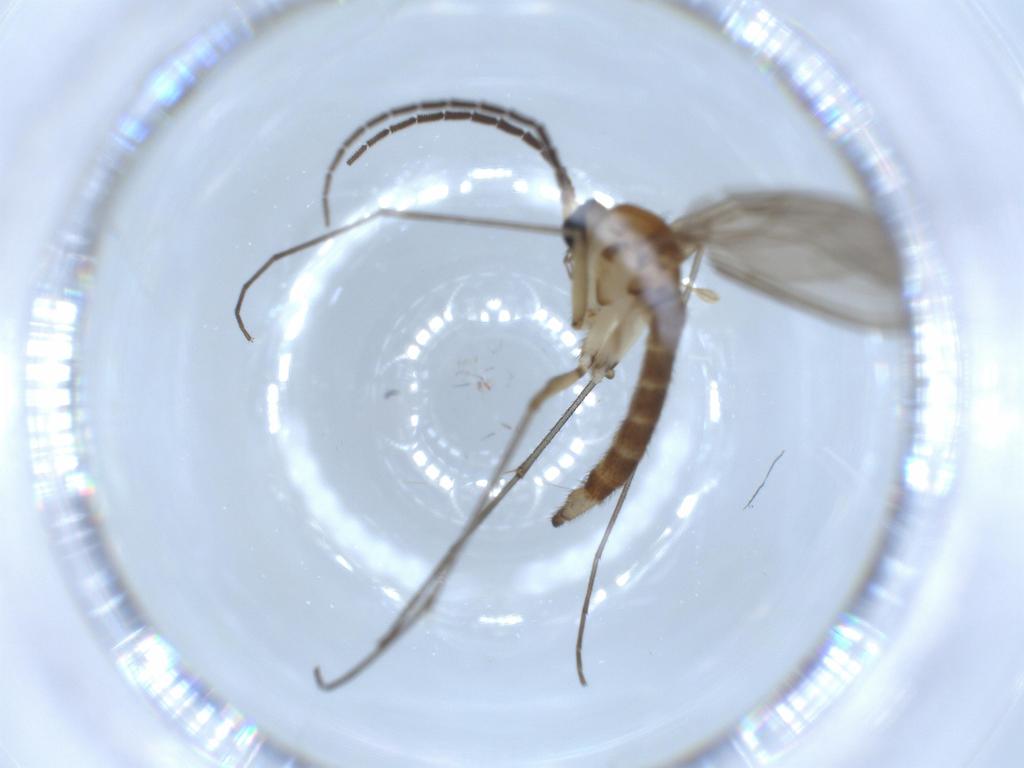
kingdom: Animalia
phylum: Arthropoda
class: Insecta
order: Diptera
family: Sciaridae
